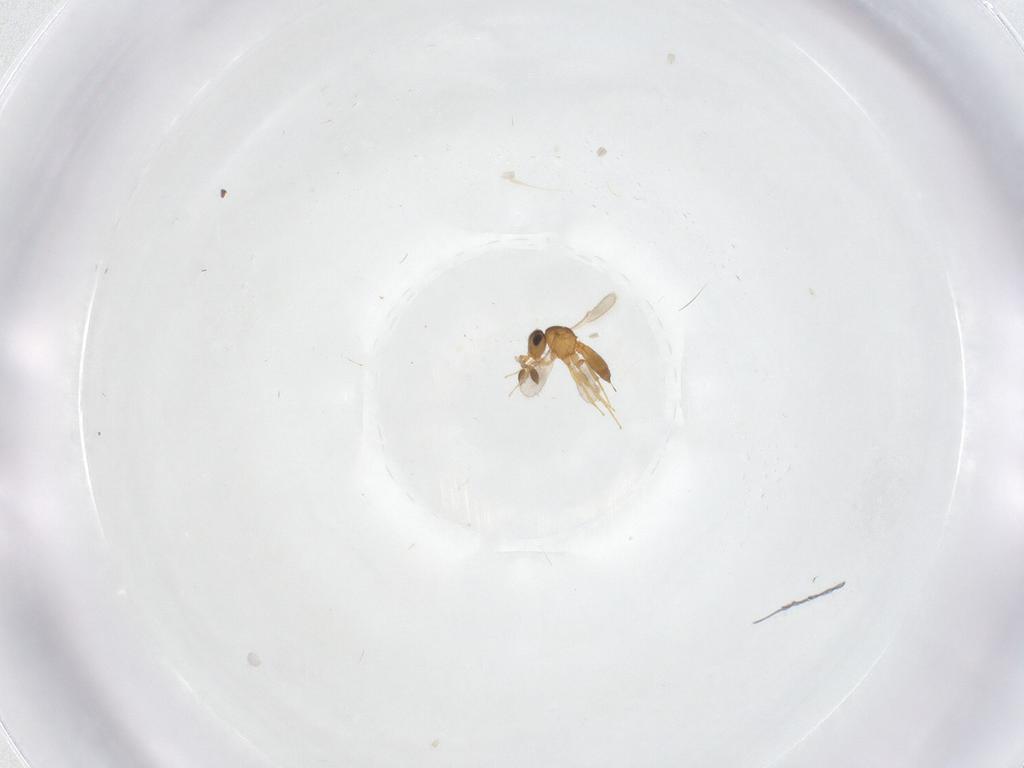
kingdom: Animalia
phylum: Arthropoda
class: Insecta
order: Hymenoptera
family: Scelionidae
